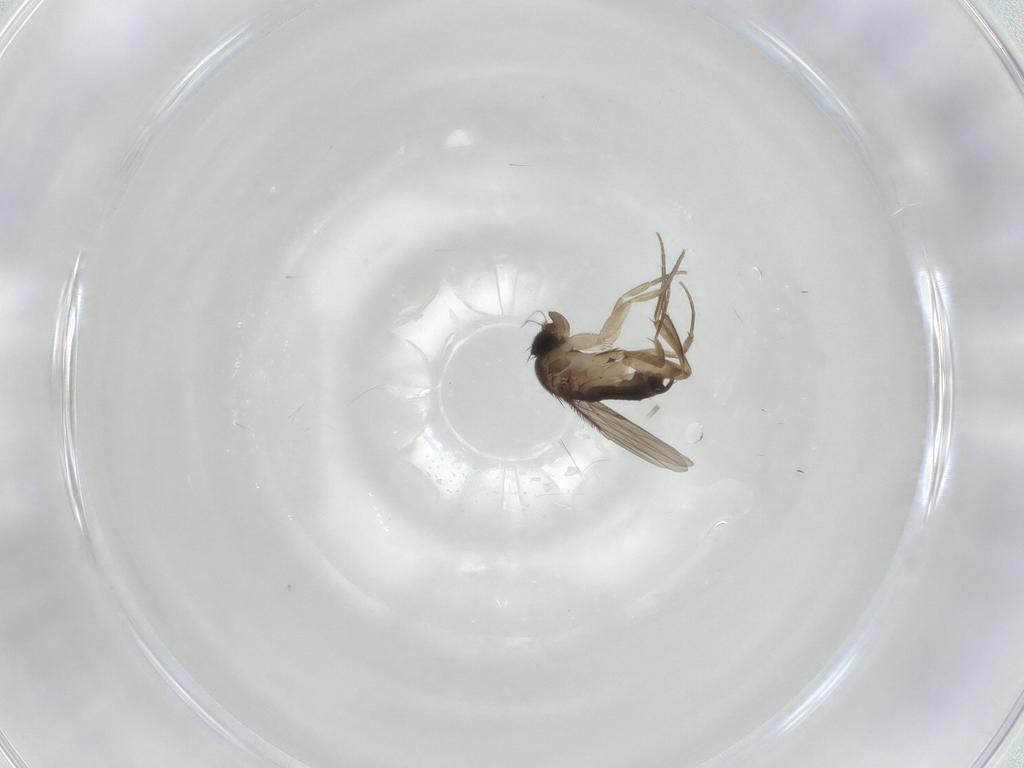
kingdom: Animalia
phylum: Arthropoda
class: Insecta
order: Diptera
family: Phoridae
